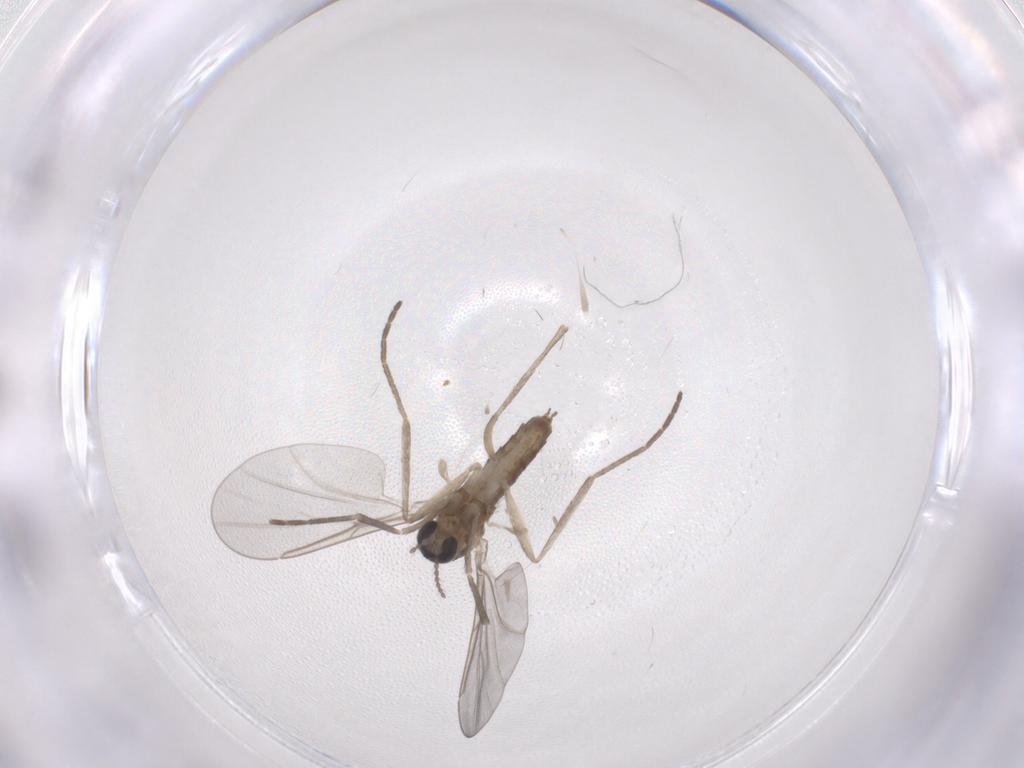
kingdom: Animalia
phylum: Arthropoda
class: Insecta
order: Diptera
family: Cecidomyiidae
